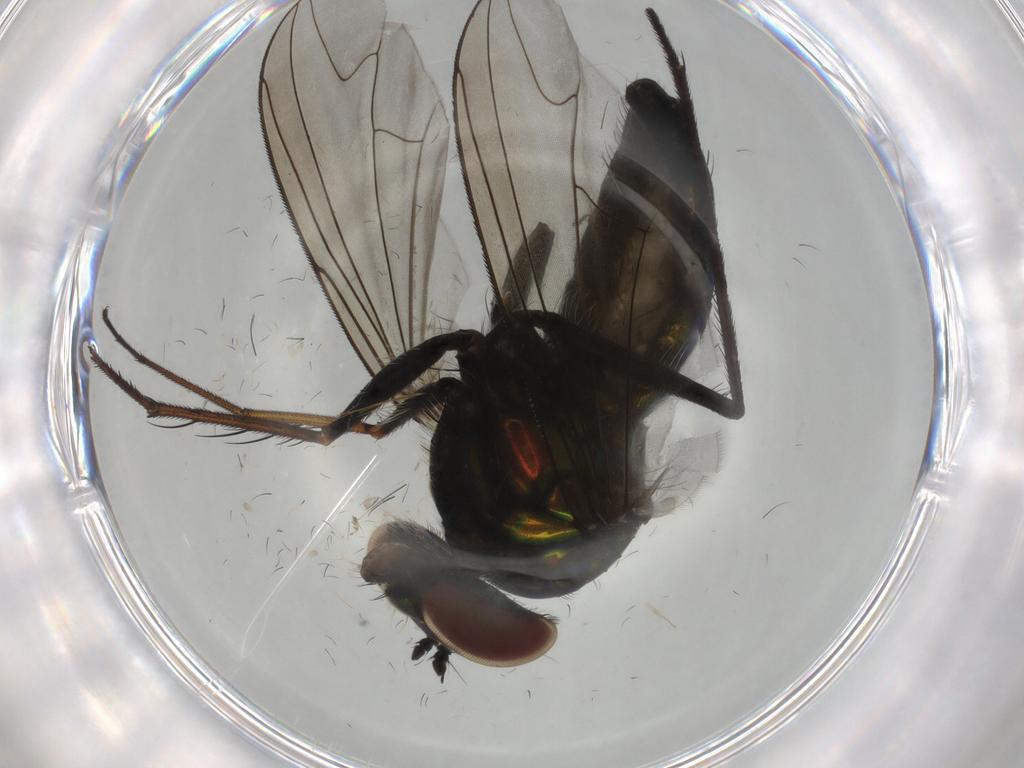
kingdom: Animalia
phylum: Arthropoda
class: Insecta
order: Diptera
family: Dolichopodidae
